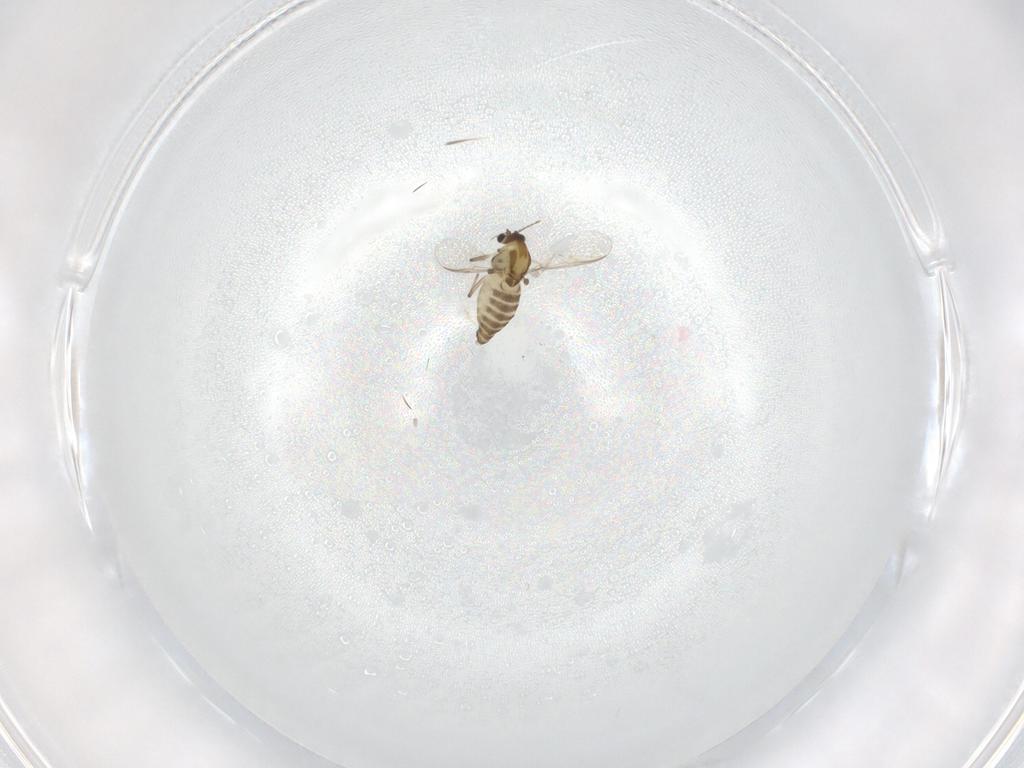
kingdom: Animalia
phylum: Arthropoda
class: Insecta
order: Diptera
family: Chironomidae
